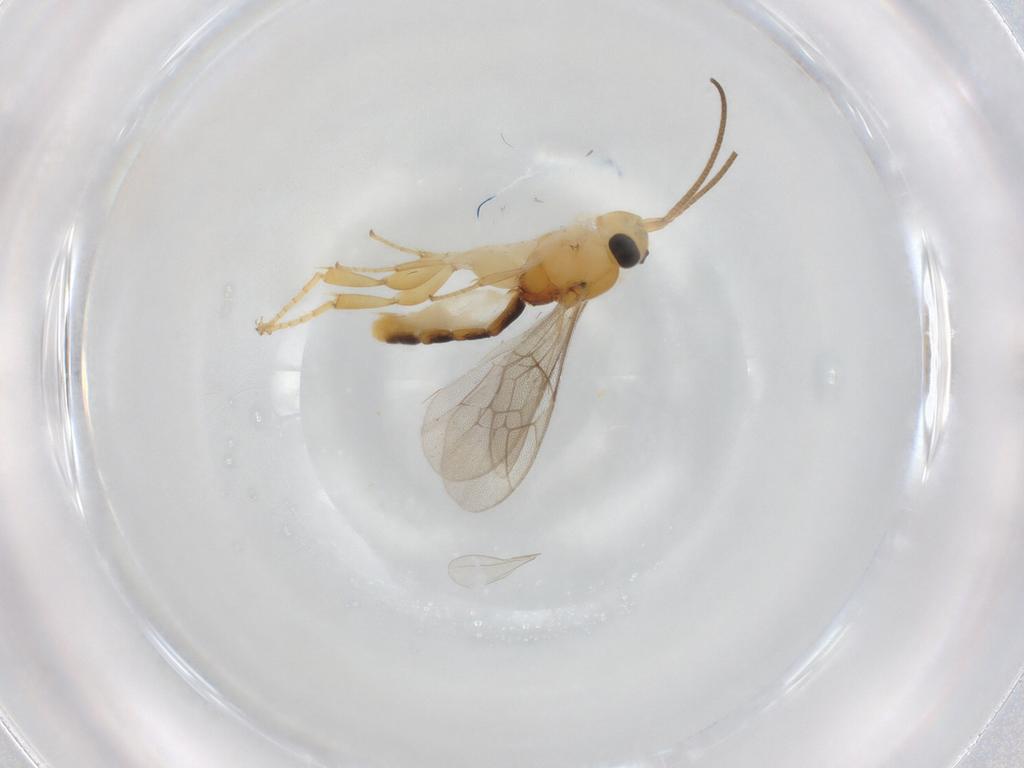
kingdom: Animalia
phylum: Arthropoda
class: Insecta
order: Hymenoptera
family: Ichneumonidae
